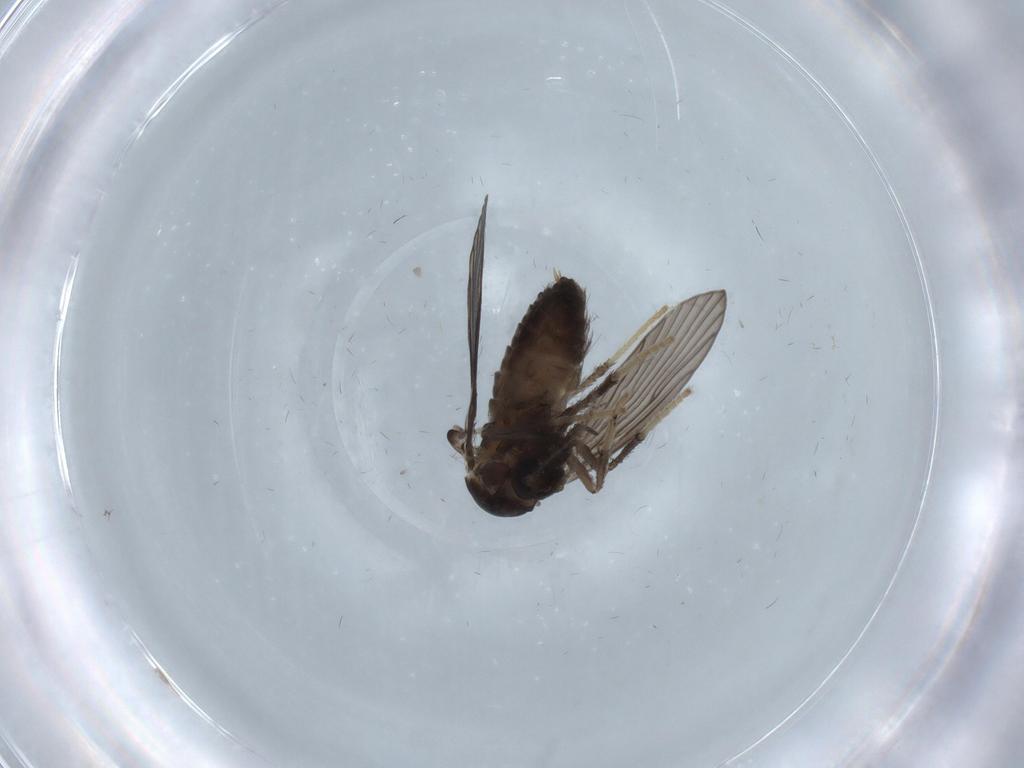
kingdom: Animalia
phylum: Arthropoda
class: Insecta
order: Diptera
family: Psychodidae
